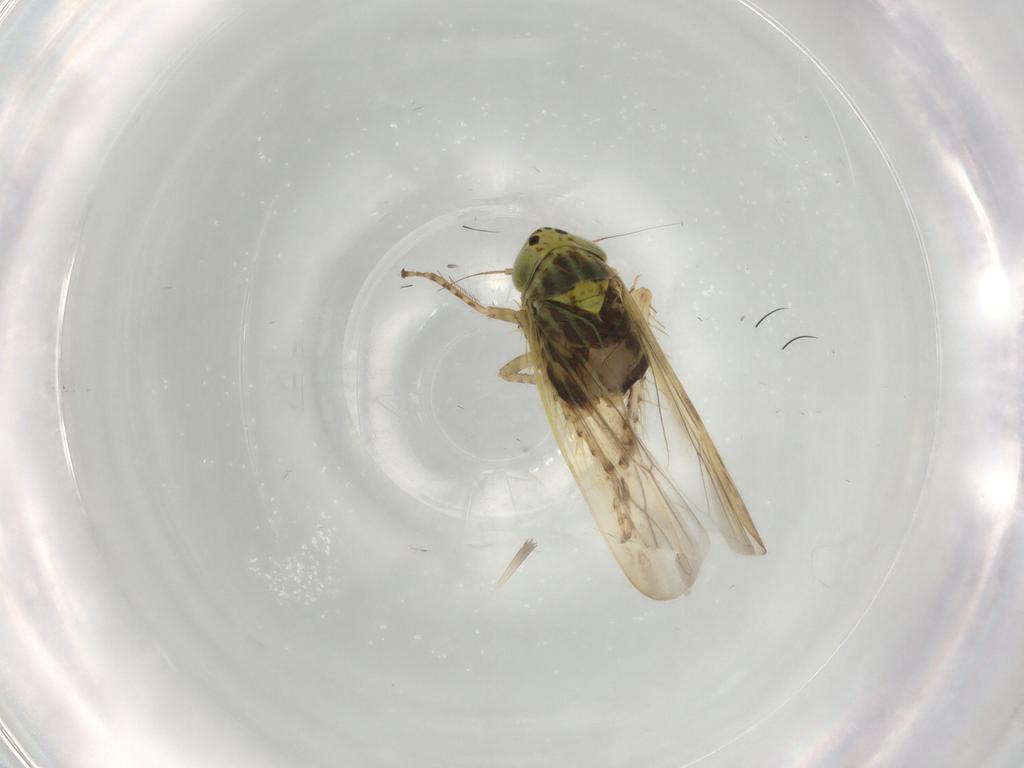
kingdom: Animalia
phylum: Arthropoda
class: Insecta
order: Hemiptera
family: Cicadellidae
